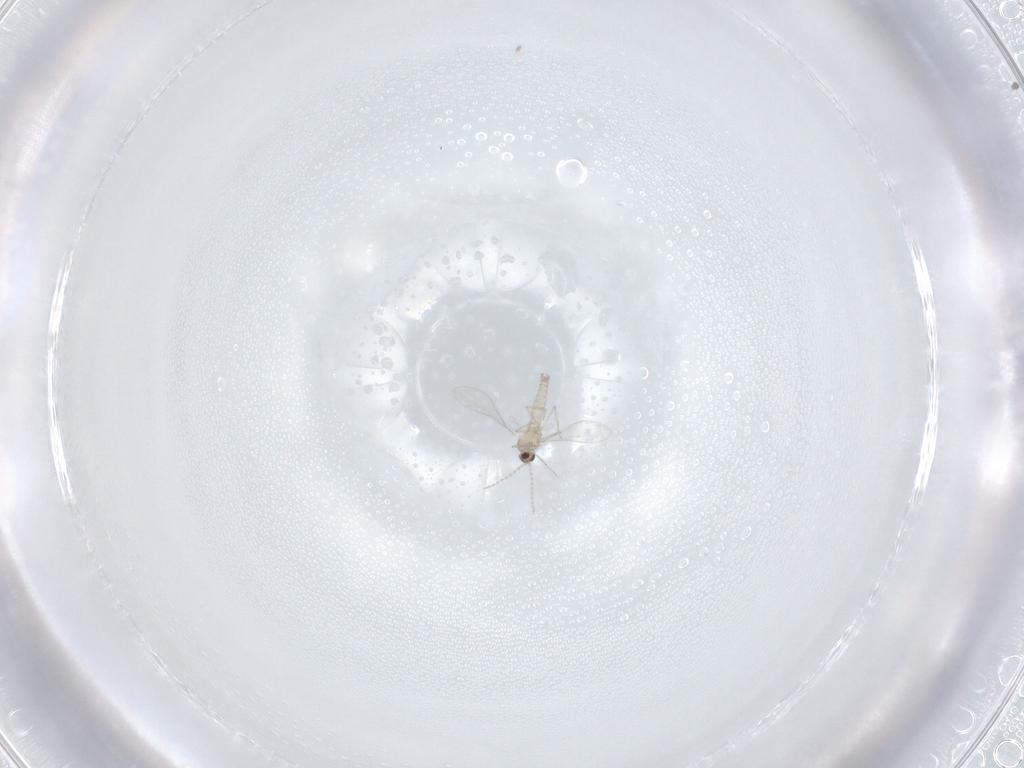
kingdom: Animalia
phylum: Arthropoda
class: Insecta
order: Diptera
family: Cecidomyiidae
